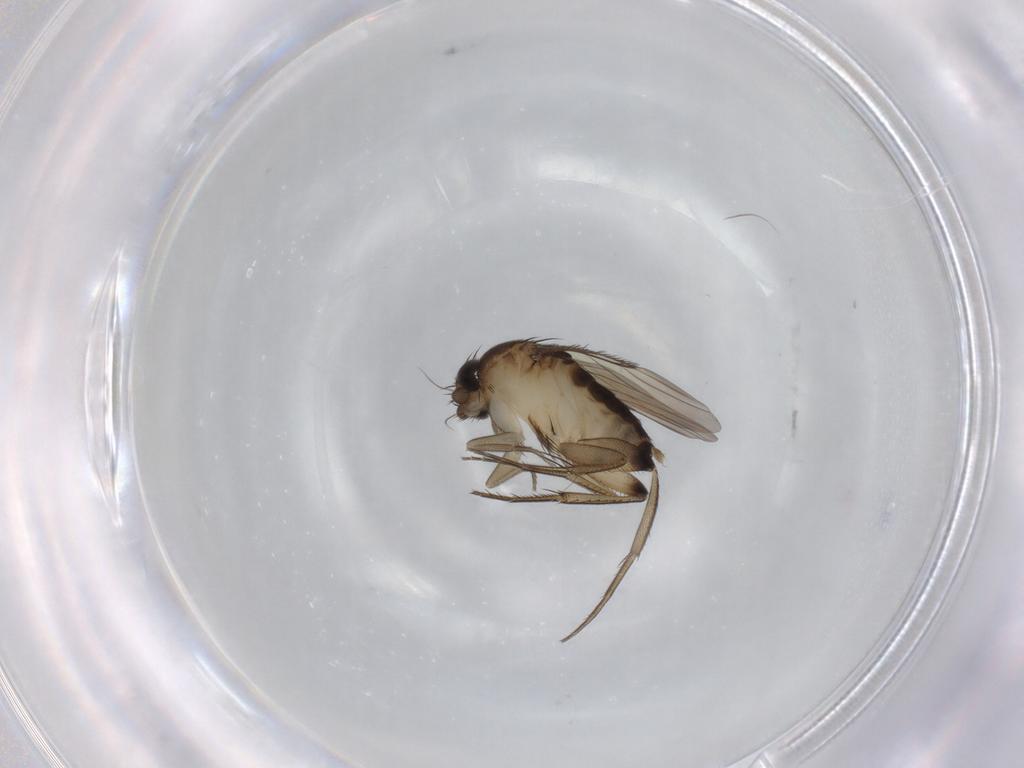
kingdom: Animalia
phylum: Arthropoda
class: Insecta
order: Diptera
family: Phoridae
